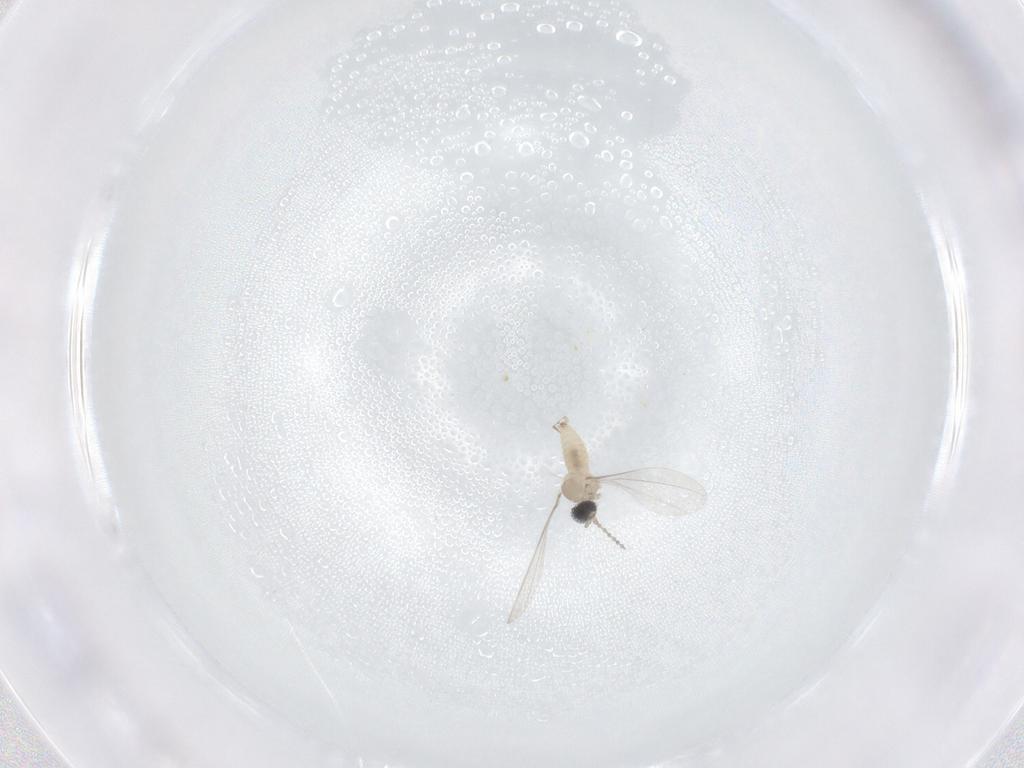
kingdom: Animalia
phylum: Arthropoda
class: Insecta
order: Diptera
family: Cecidomyiidae
